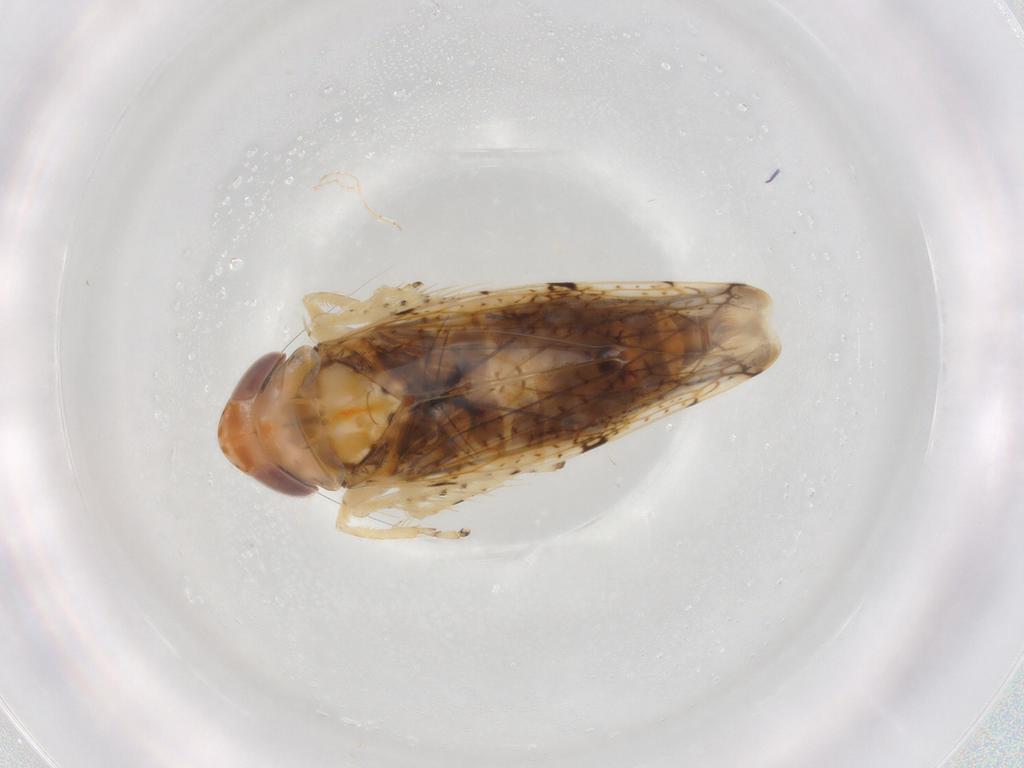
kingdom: Animalia
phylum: Arthropoda
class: Insecta
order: Hemiptera
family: Cicadellidae
